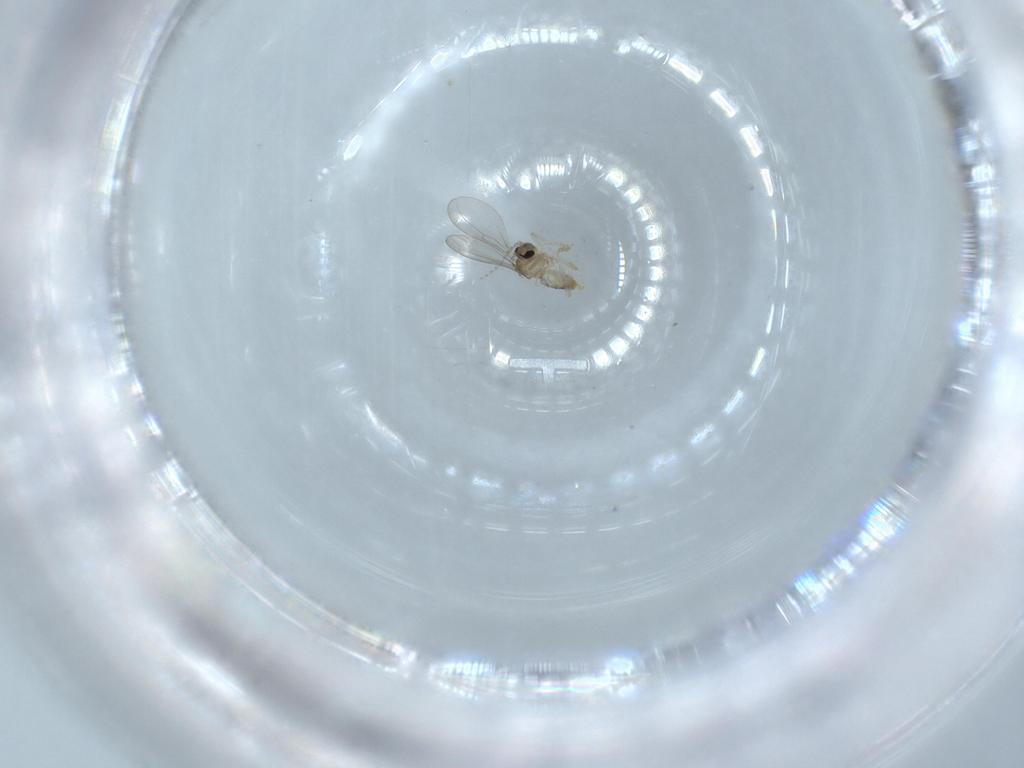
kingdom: Animalia
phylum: Arthropoda
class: Insecta
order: Diptera
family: Cecidomyiidae
